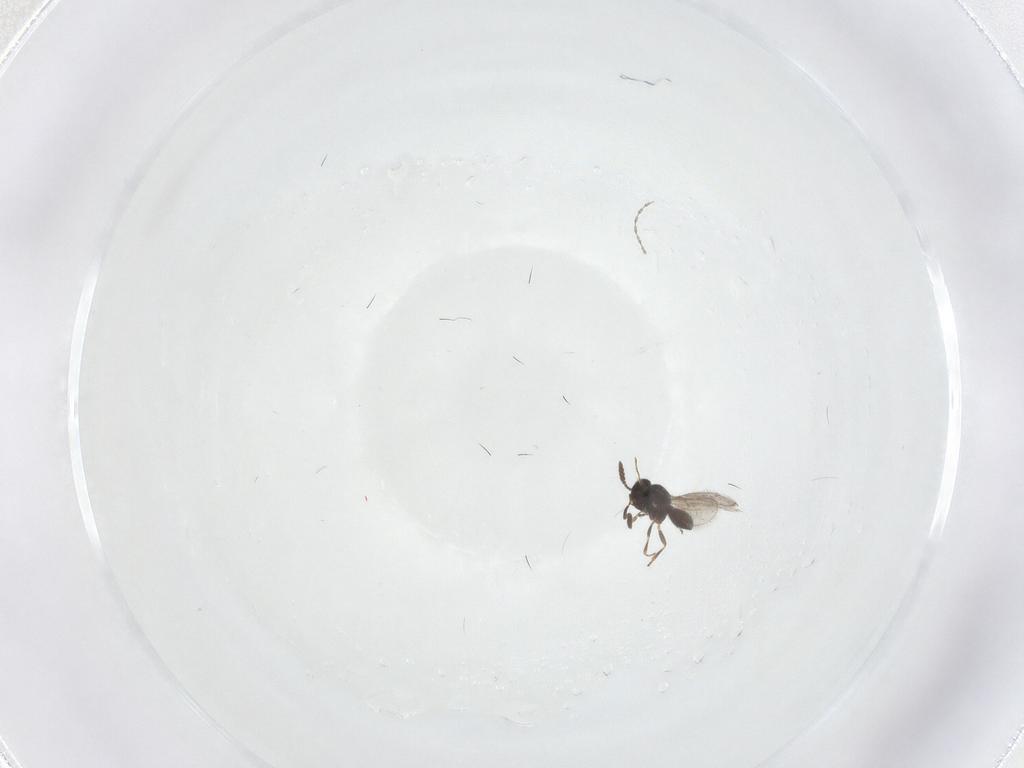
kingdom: Animalia
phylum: Arthropoda
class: Insecta
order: Hymenoptera
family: Scelionidae
